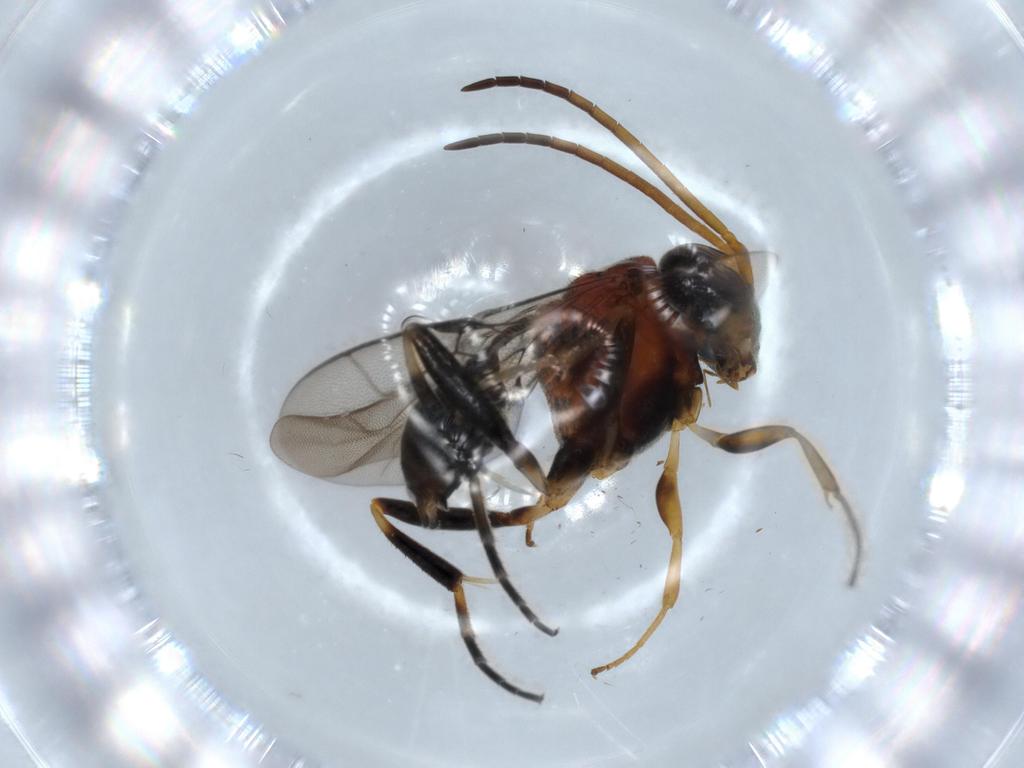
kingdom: Animalia
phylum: Arthropoda
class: Insecta
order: Hymenoptera
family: Evaniidae
